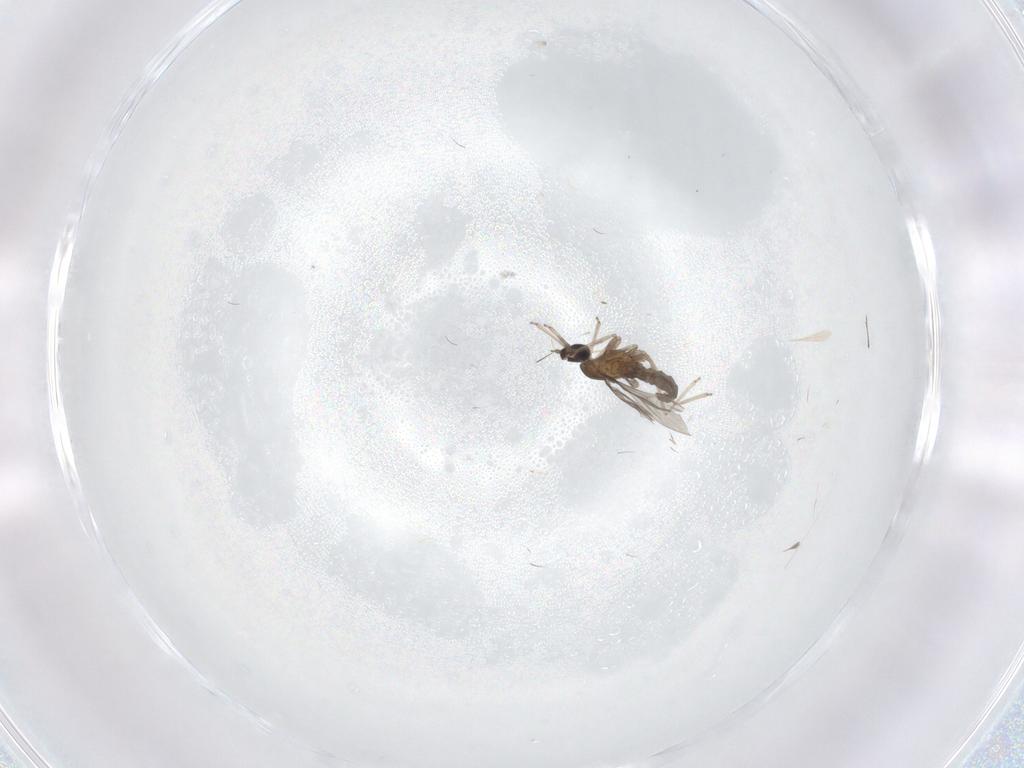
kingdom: Animalia
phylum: Arthropoda
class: Insecta
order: Diptera
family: Cecidomyiidae
